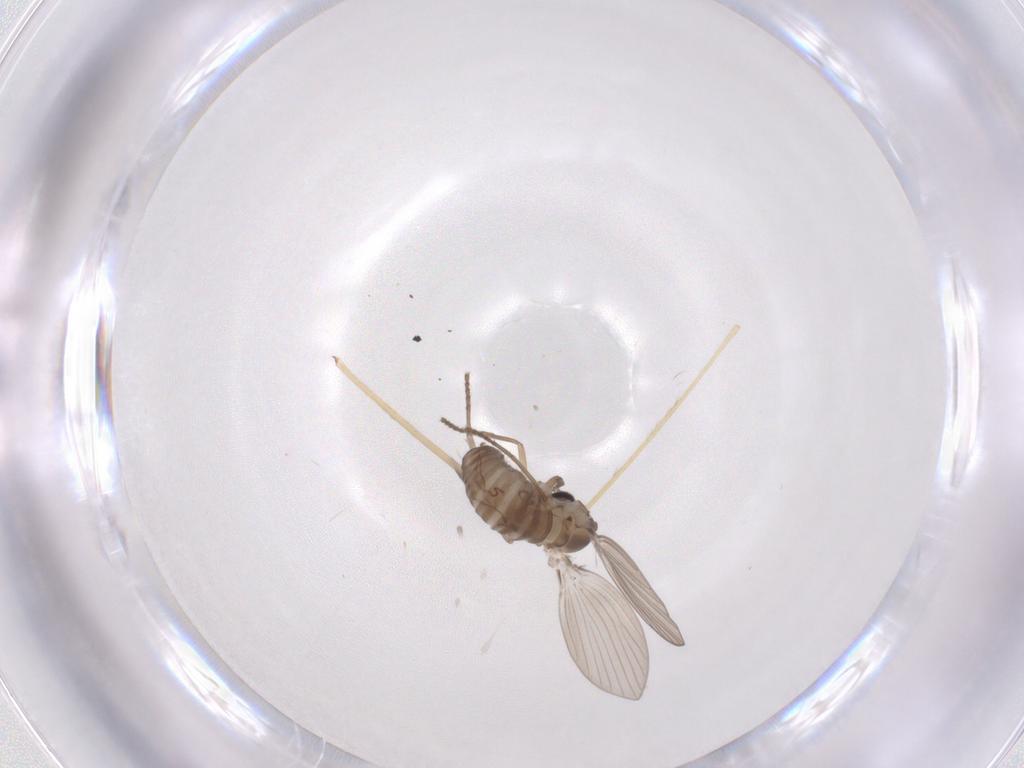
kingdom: Animalia
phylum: Arthropoda
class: Insecta
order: Diptera
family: Psychodidae
